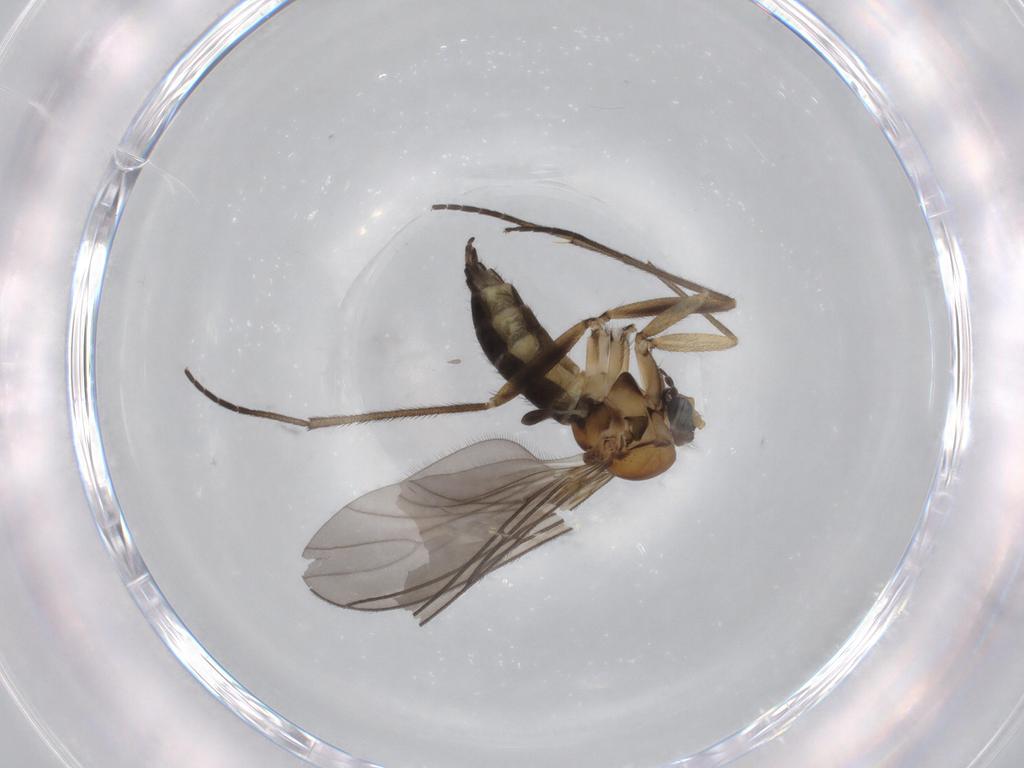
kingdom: Animalia
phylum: Arthropoda
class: Insecta
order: Diptera
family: Sciaridae
